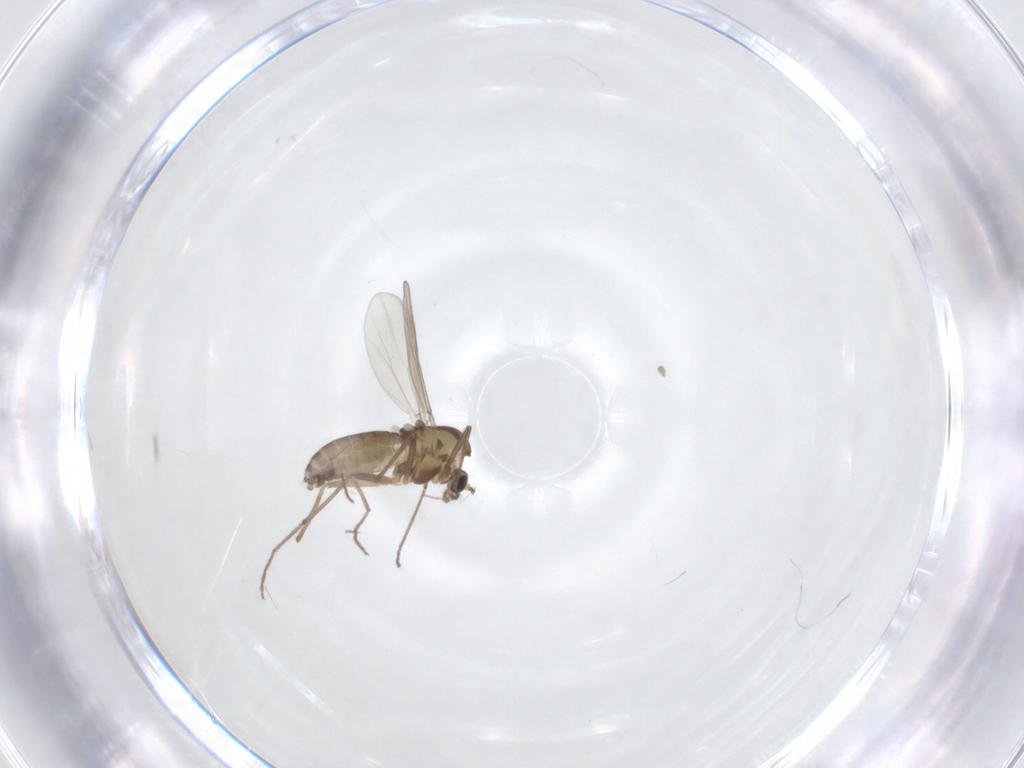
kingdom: Animalia
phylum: Arthropoda
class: Insecta
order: Diptera
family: Chironomidae
